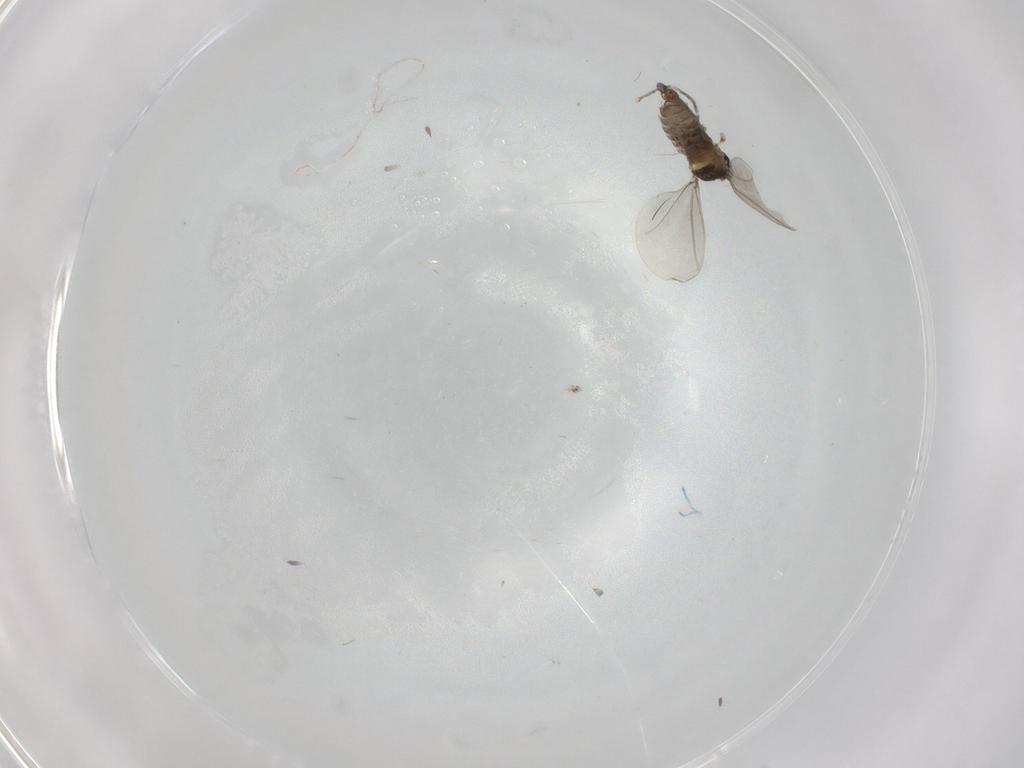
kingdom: Animalia
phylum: Arthropoda
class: Insecta
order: Diptera
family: Cecidomyiidae
